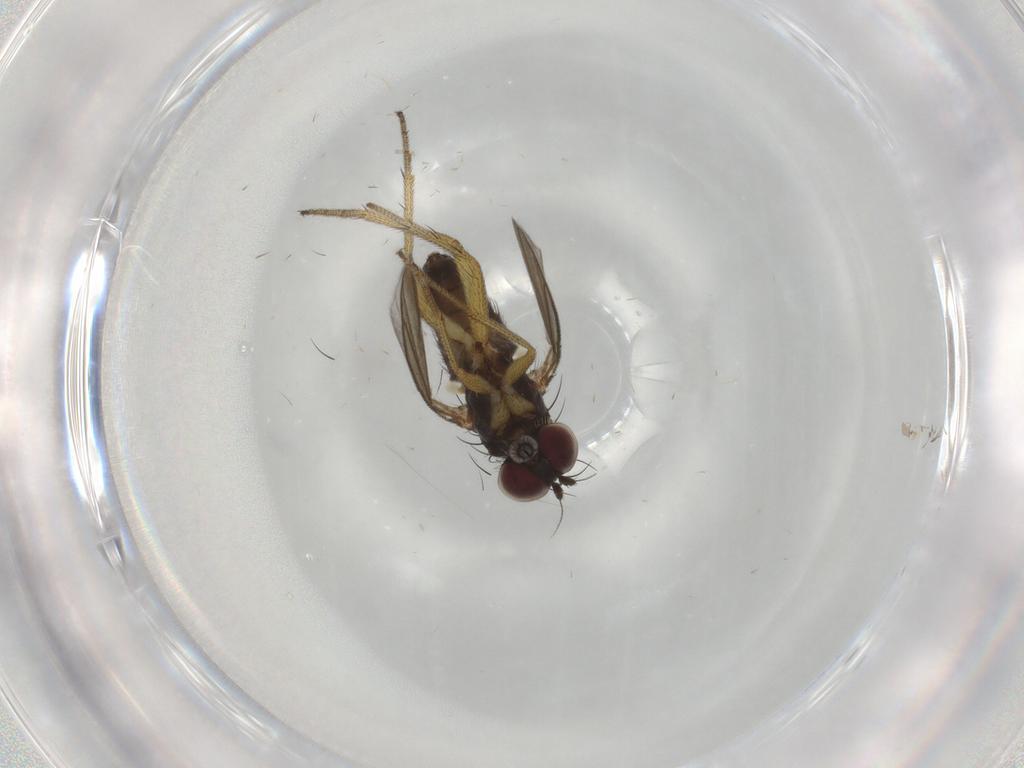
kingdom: Animalia
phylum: Arthropoda
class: Insecta
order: Diptera
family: Dolichopodidae
